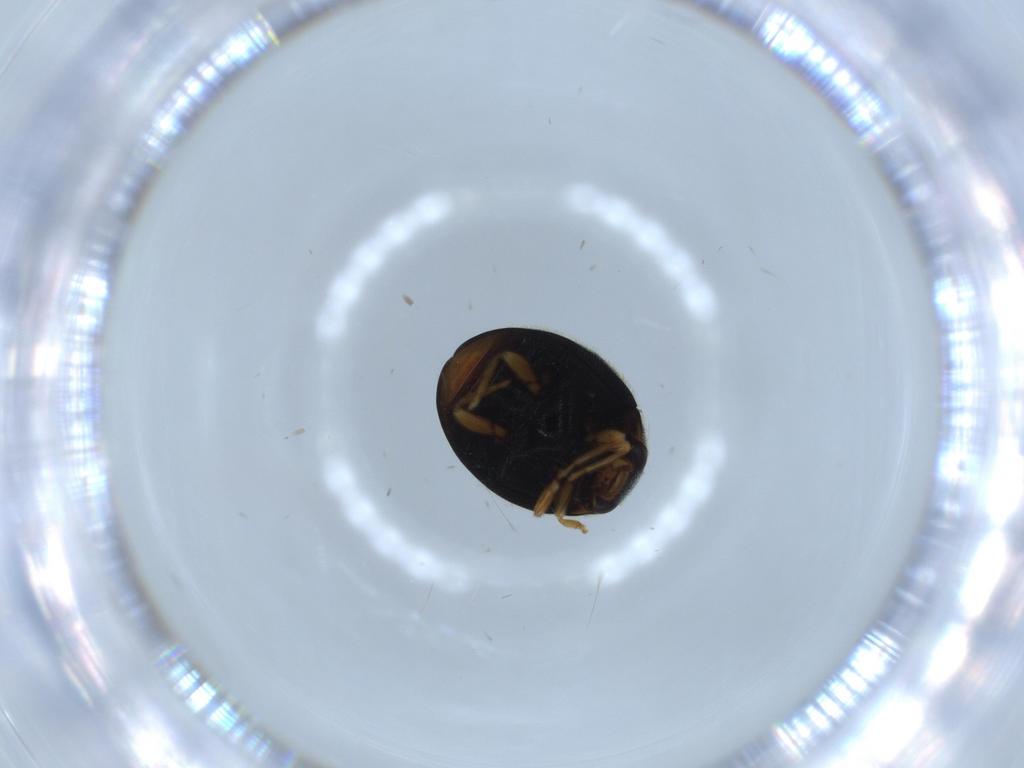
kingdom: Animalia
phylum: Arthropoda
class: Insecta
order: Coleoptera
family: Coccinellidae
